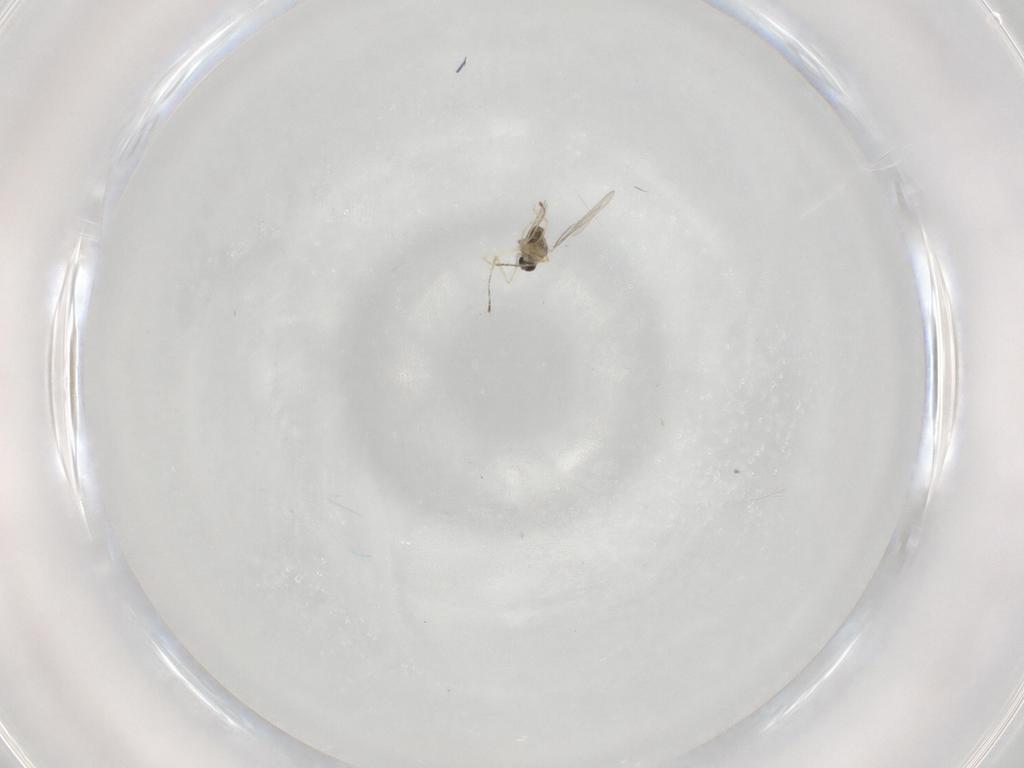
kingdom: Animalia
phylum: Arthropoda
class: Insecta
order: Diptera
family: Cecidomyiidae
